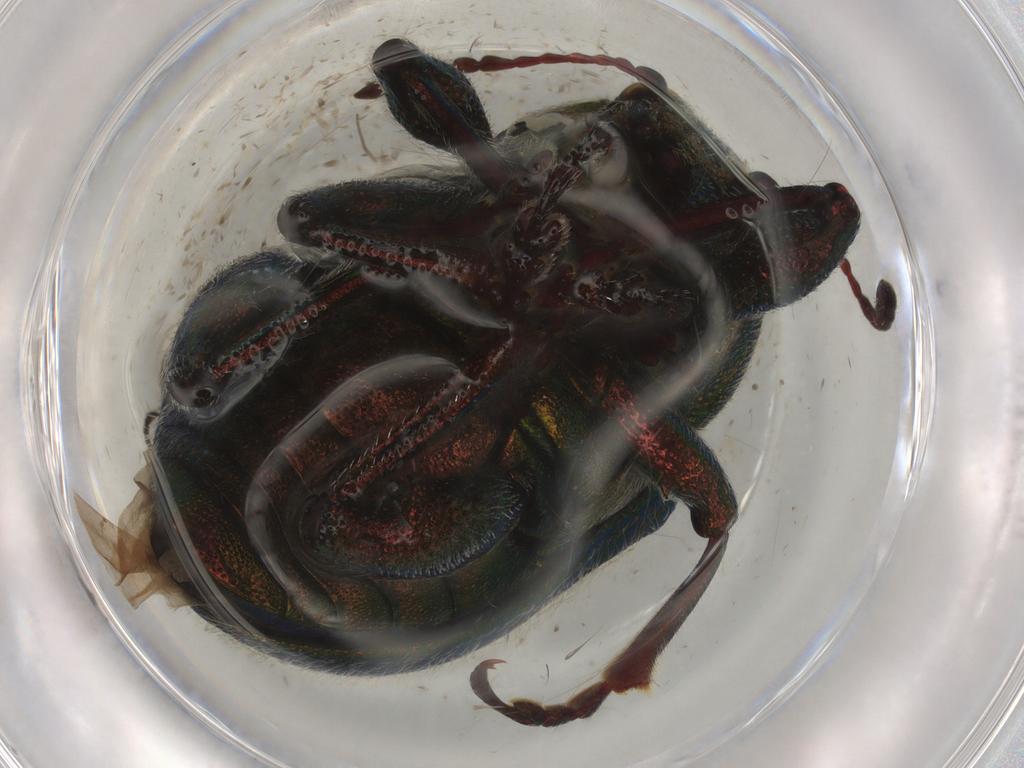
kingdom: Animalia
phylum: Arthropoda
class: Insecta
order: Coleoptera
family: Chrysomelidae
